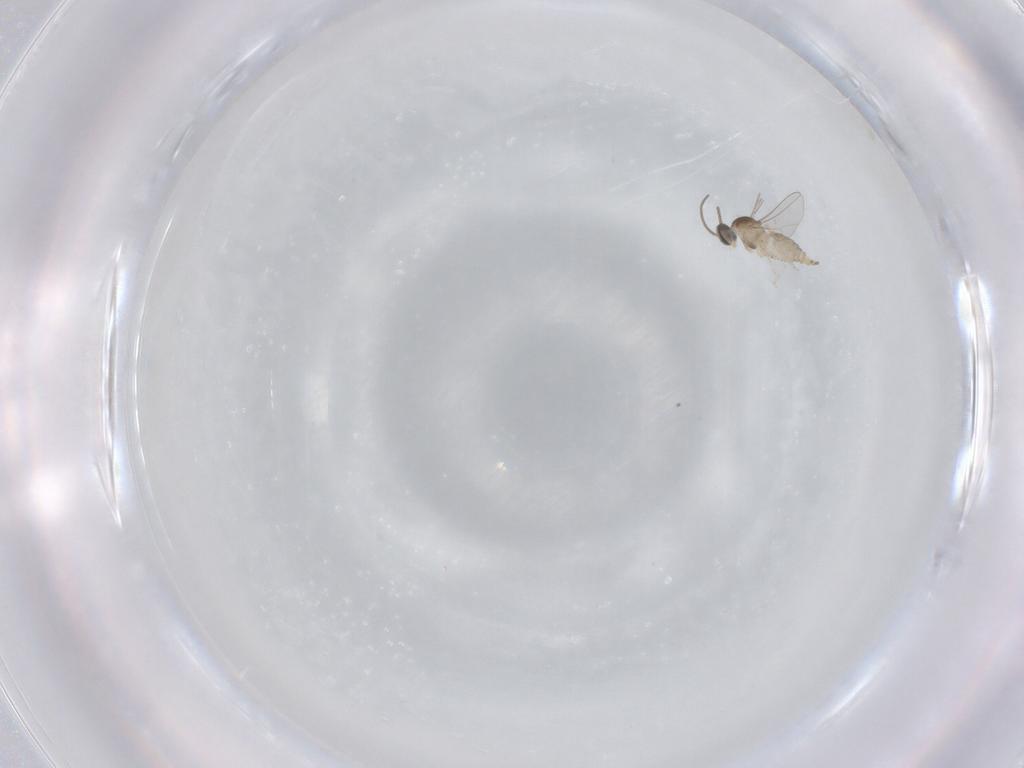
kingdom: Animalia
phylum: Arthropoda
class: Insecta
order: Diptera
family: Cecidomyiidae
